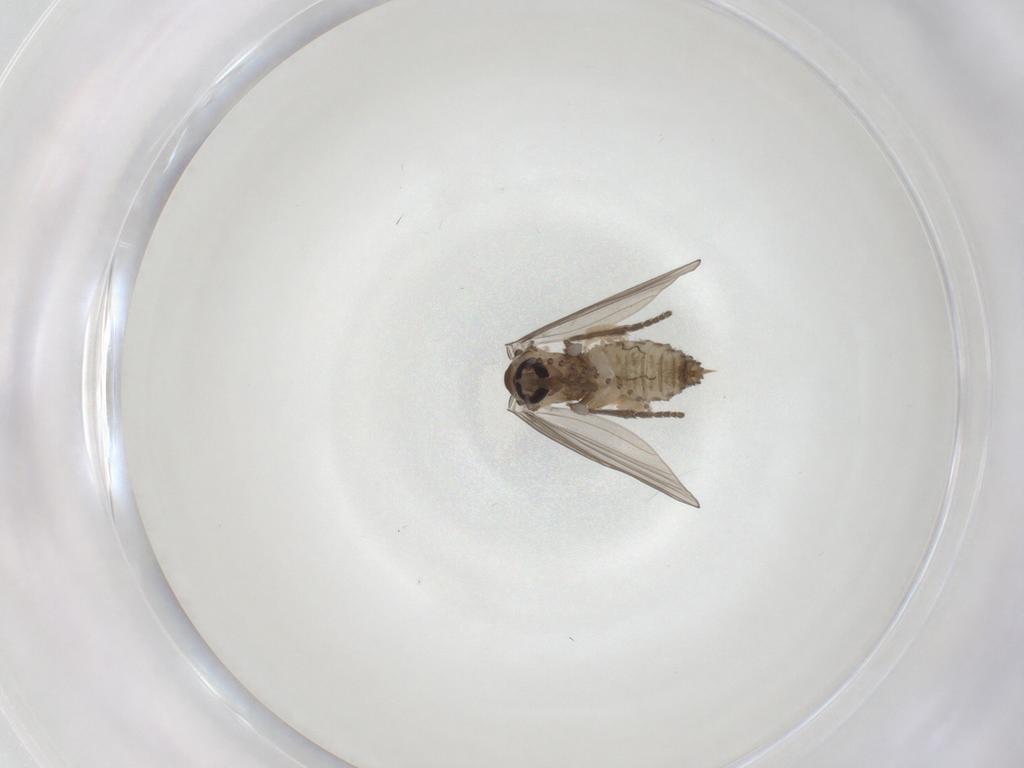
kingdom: Animalia
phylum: Arthropoda
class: Insecta
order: Diptera
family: Psychodidae
